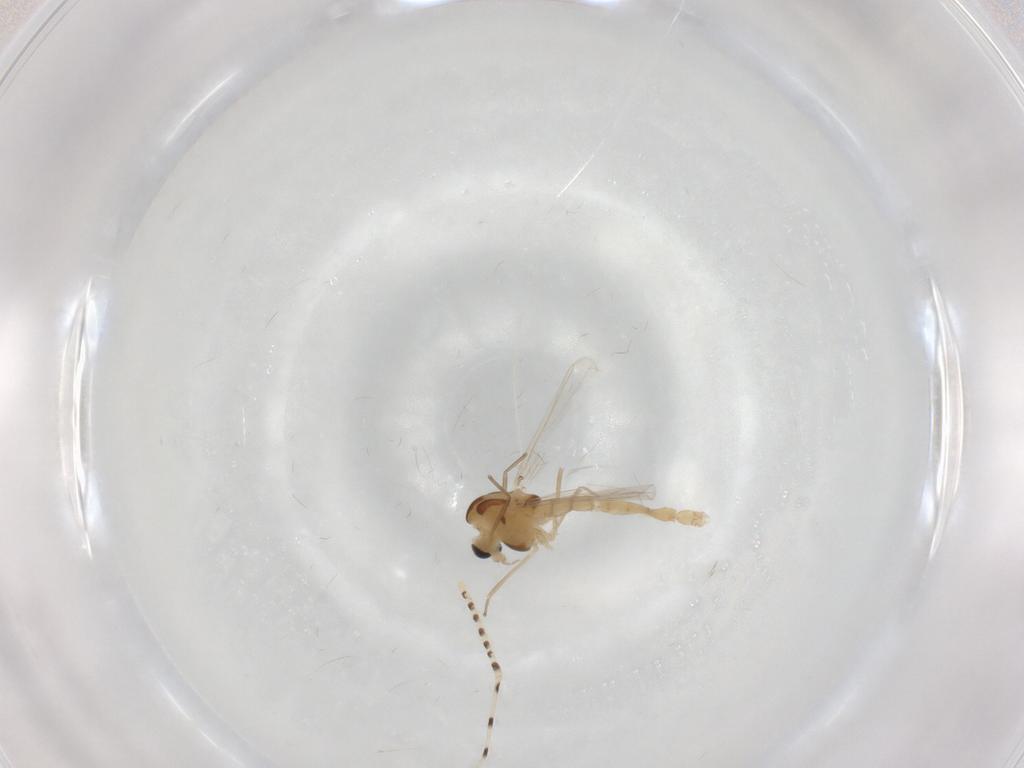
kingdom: Animalia
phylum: Arthropoda
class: Insecta
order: Diptera
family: Chironomidae
